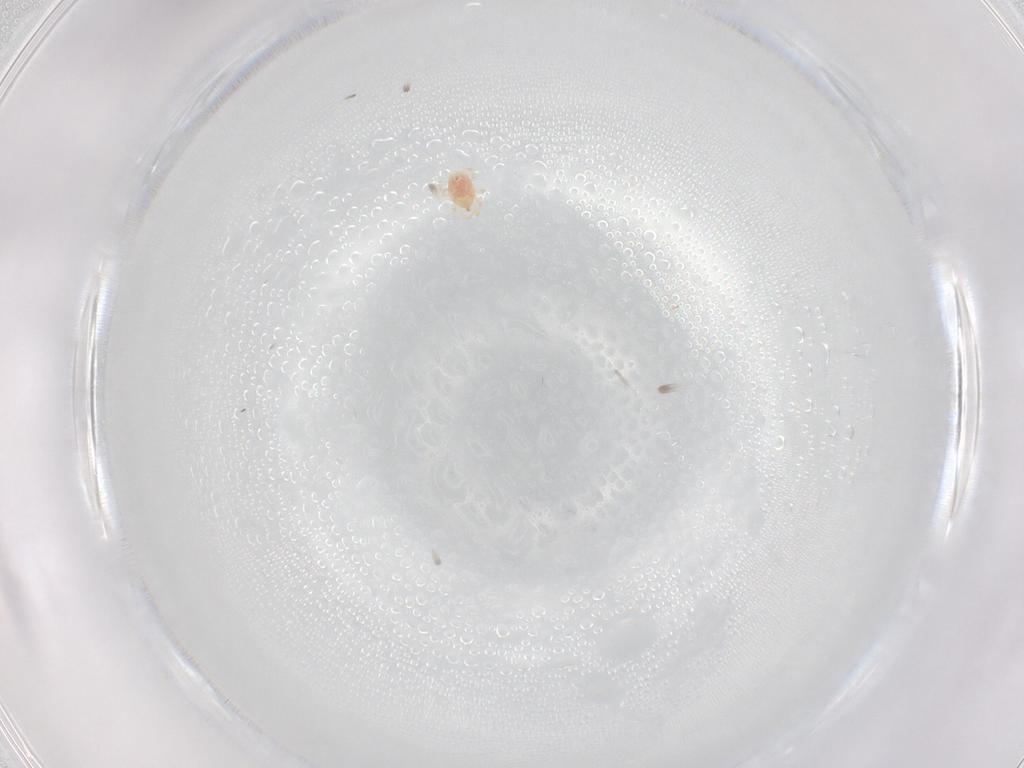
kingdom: Animalia
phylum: Arthropoda
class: Arachnida
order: Mesostigmata
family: Phytoseiidae
